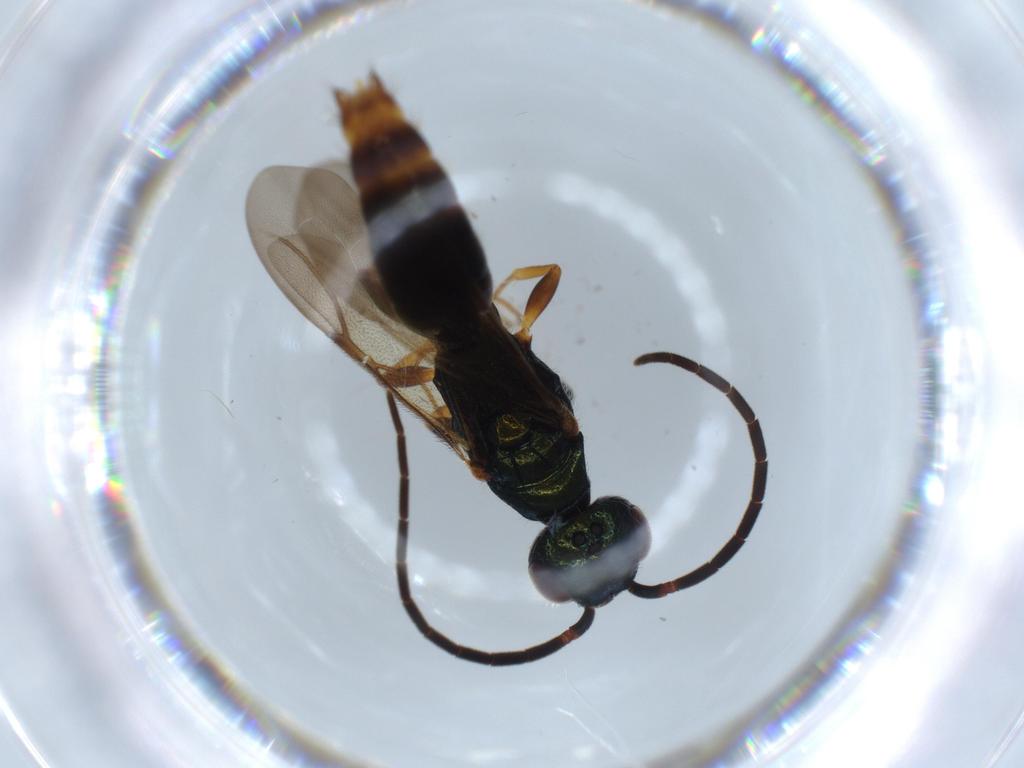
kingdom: Animalia
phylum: Arthropoda
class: Insecta
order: Hymenoptera
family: Bethylidae
